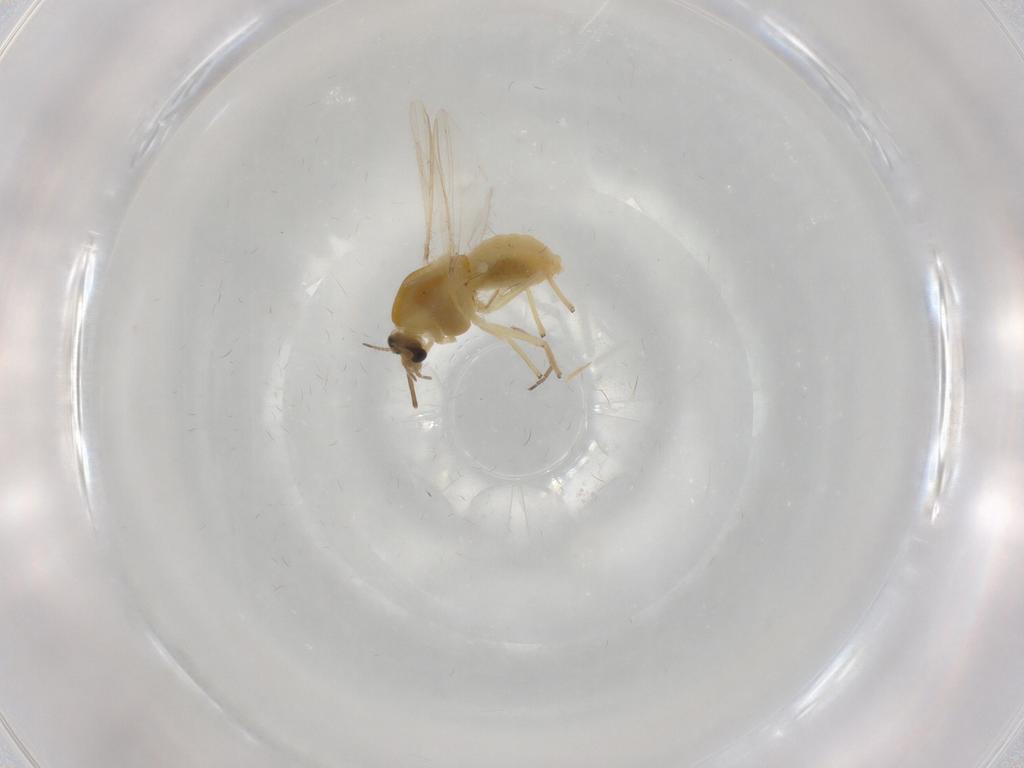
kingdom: Animalia
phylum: Arthropoda
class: Insecta
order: Diptera
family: Chironomidae
